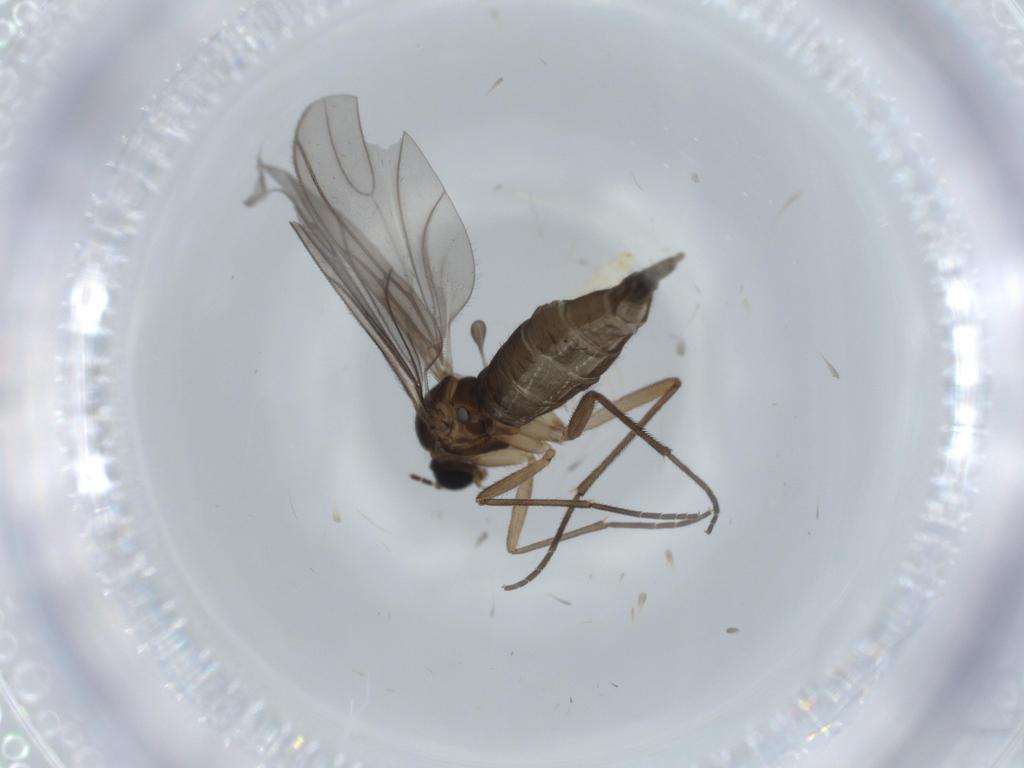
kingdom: Animalia
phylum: Arthropoda
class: Insecta
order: Diptera
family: Sciaridae
